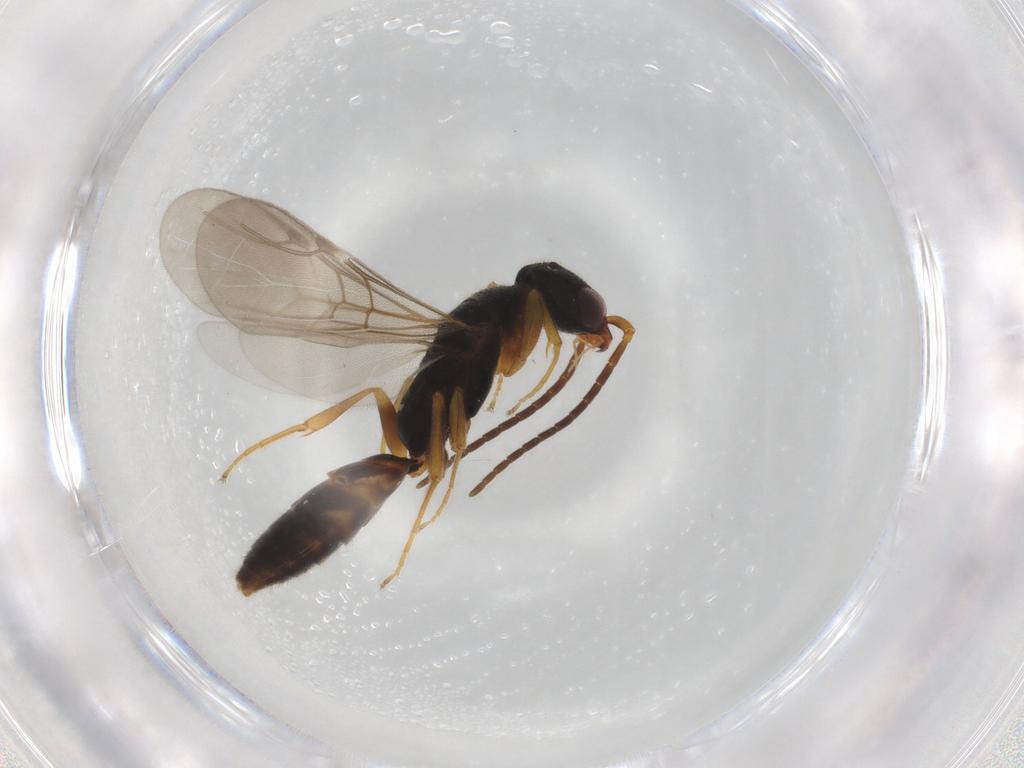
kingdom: Animalia
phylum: Arthropoda
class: Insecta
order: Hymenoptera
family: Bethylidae
